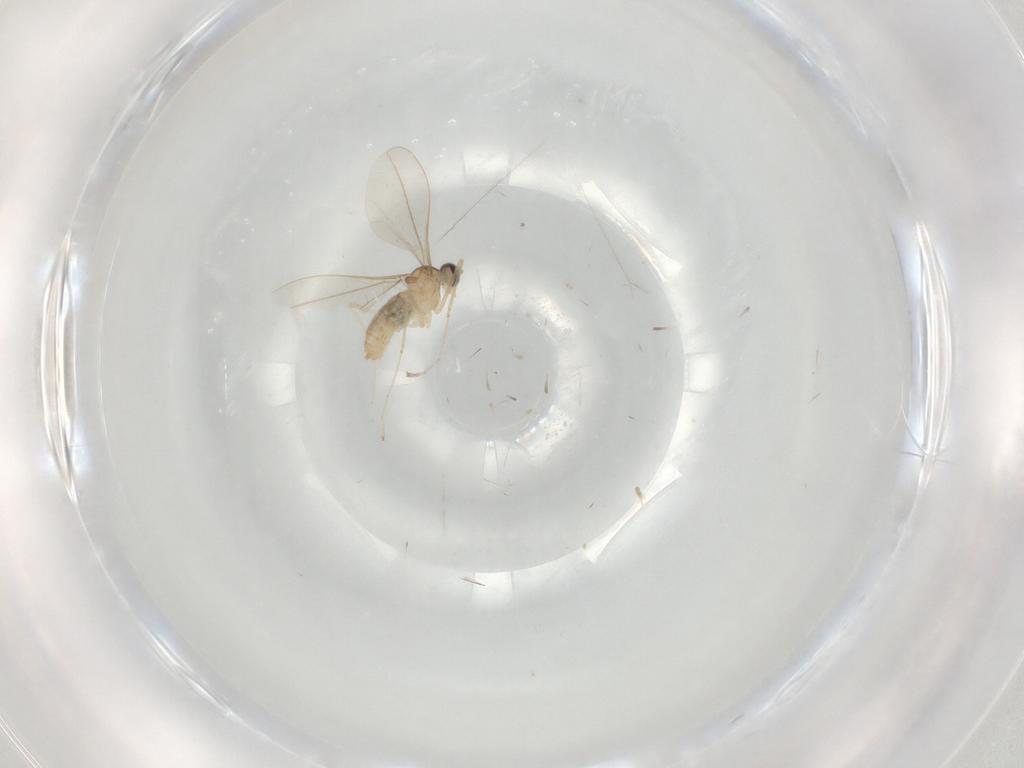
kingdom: Animalia
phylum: Arthropoda
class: Insecta
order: Diptera
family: Cecidomyiidae
